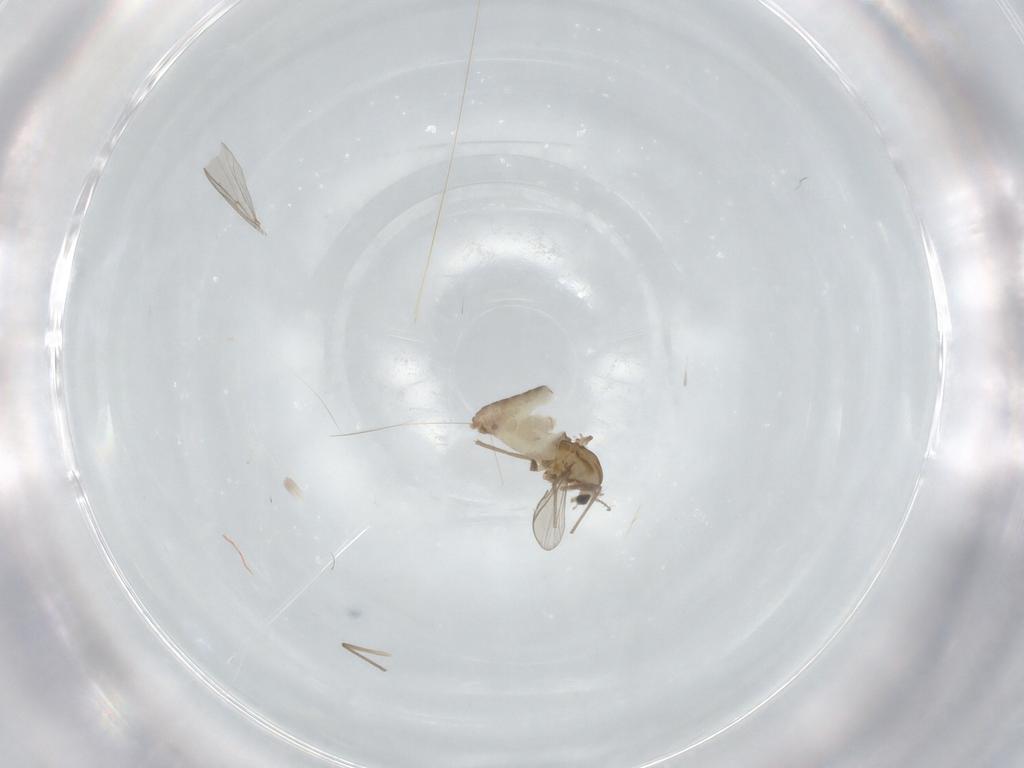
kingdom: Animalia
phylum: Arthropoda
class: Insecta
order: Diptera
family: Chironomidae
